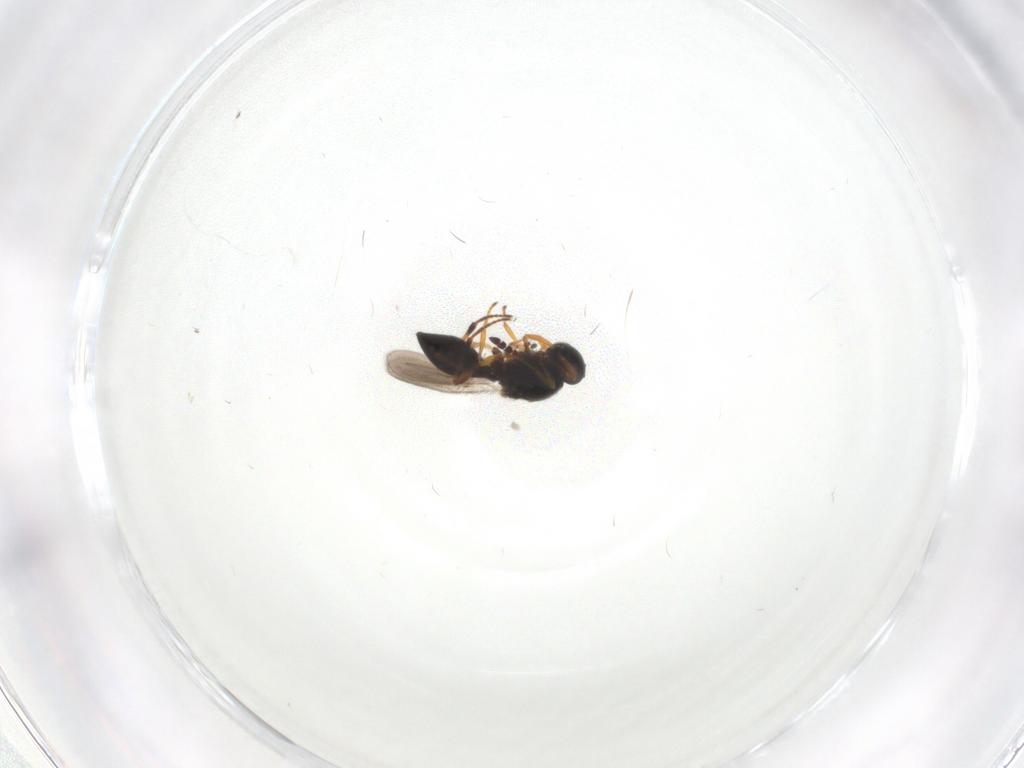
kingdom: Animalia
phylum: Arthropoda
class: Insecta
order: Hymenoptera
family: Platygastridae
